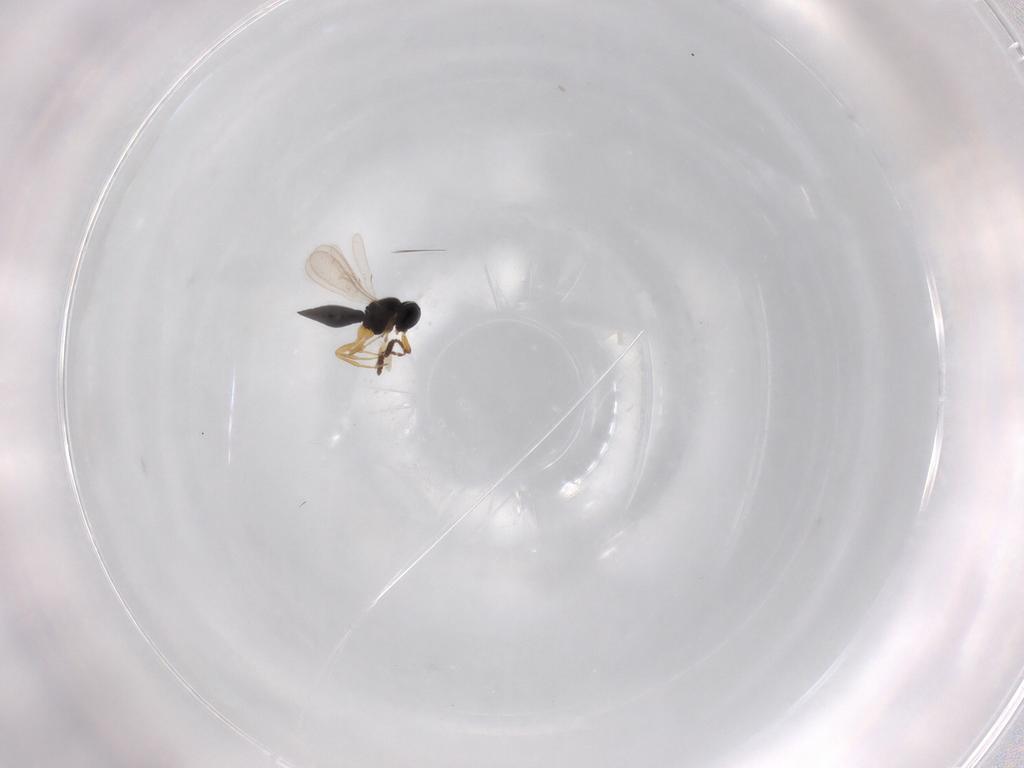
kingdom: Animalia
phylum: Arthropoda
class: Insecta
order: Hymenoptera
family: Scelionidae
